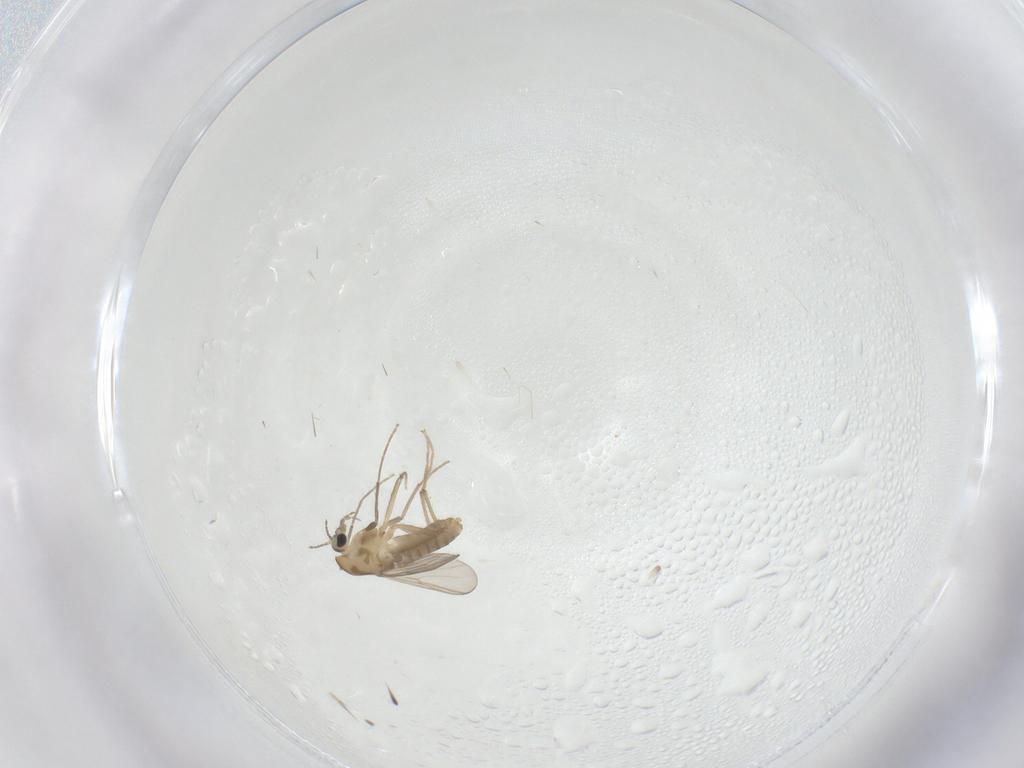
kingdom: Animalia
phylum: Arthropoda
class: Insecta
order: Diptera
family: Chironomidae
